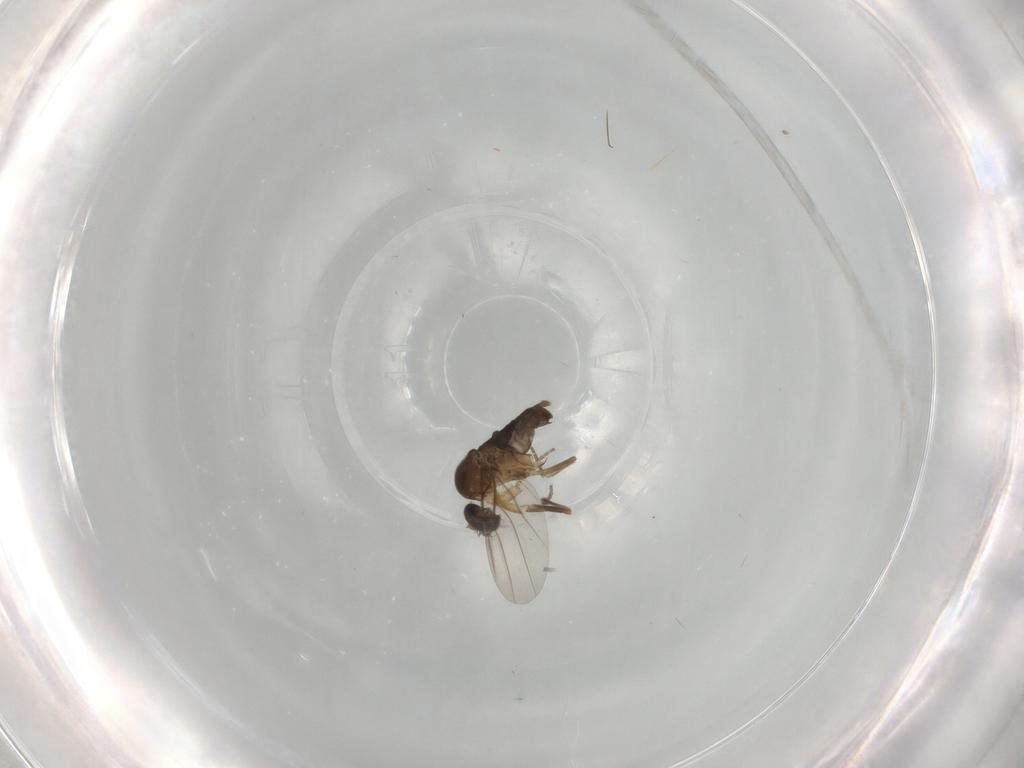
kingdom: Animalia
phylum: Arthropoda
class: Insecta
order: Diptera
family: Phoridae
